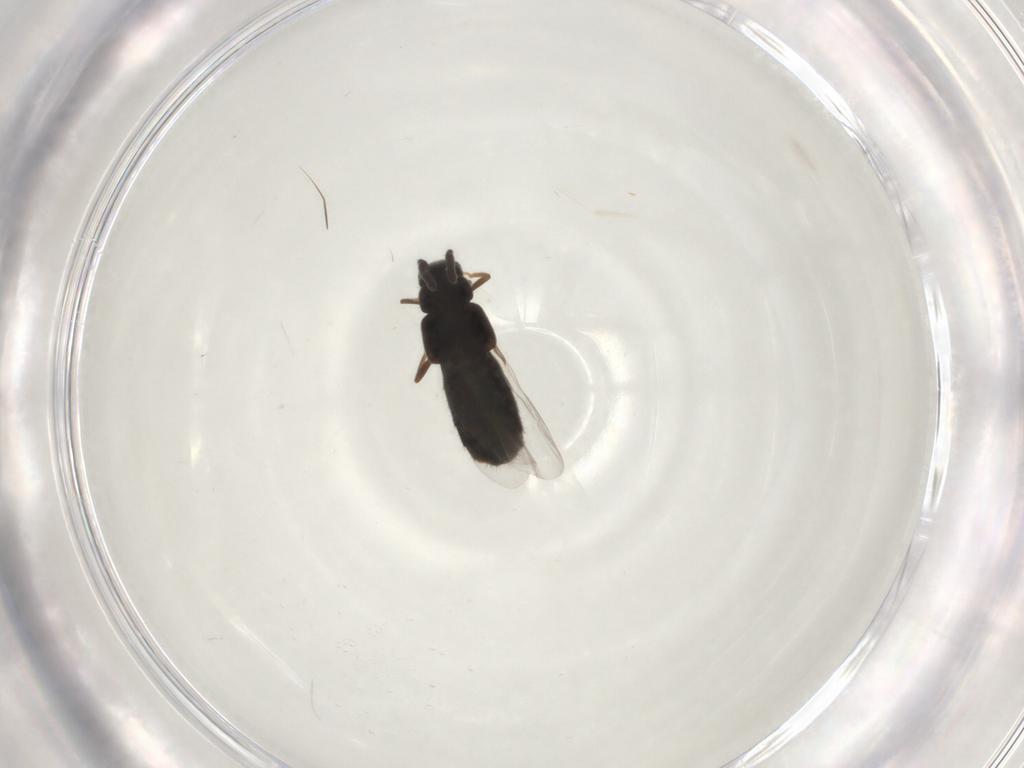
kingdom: Animalia
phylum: Arthropoda
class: Insecta
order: Coleoptera
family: Staphylinidae
